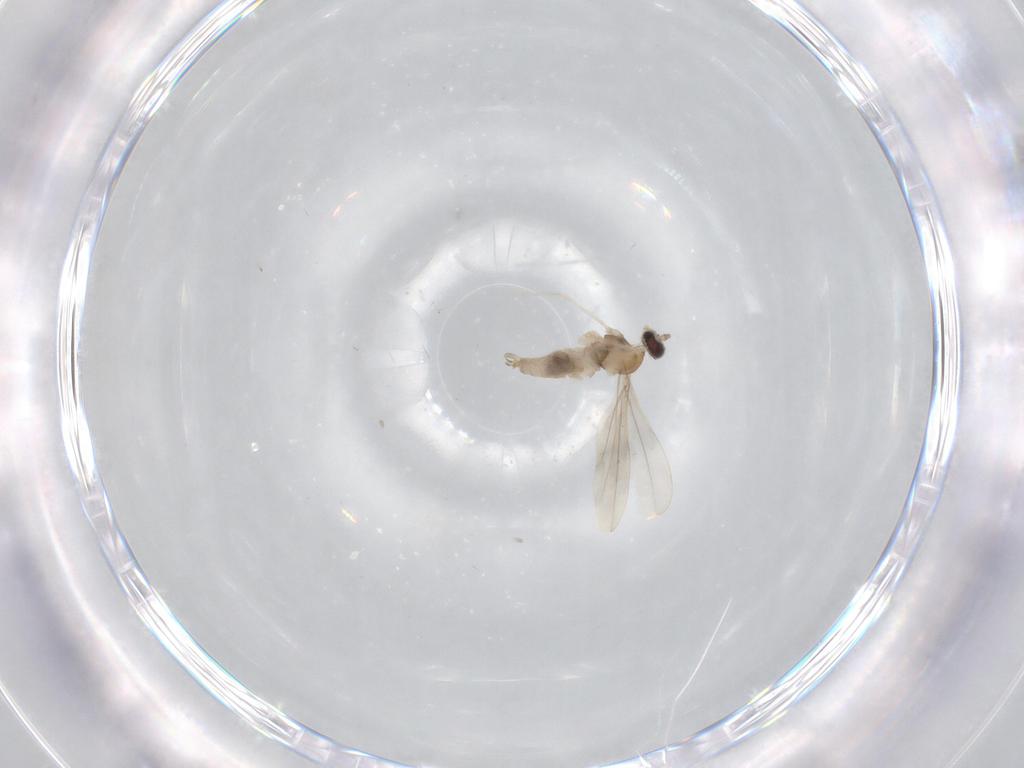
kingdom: Animalia
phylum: Arthropoda
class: Insecta
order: Diptera
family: Cecidomyiidae
